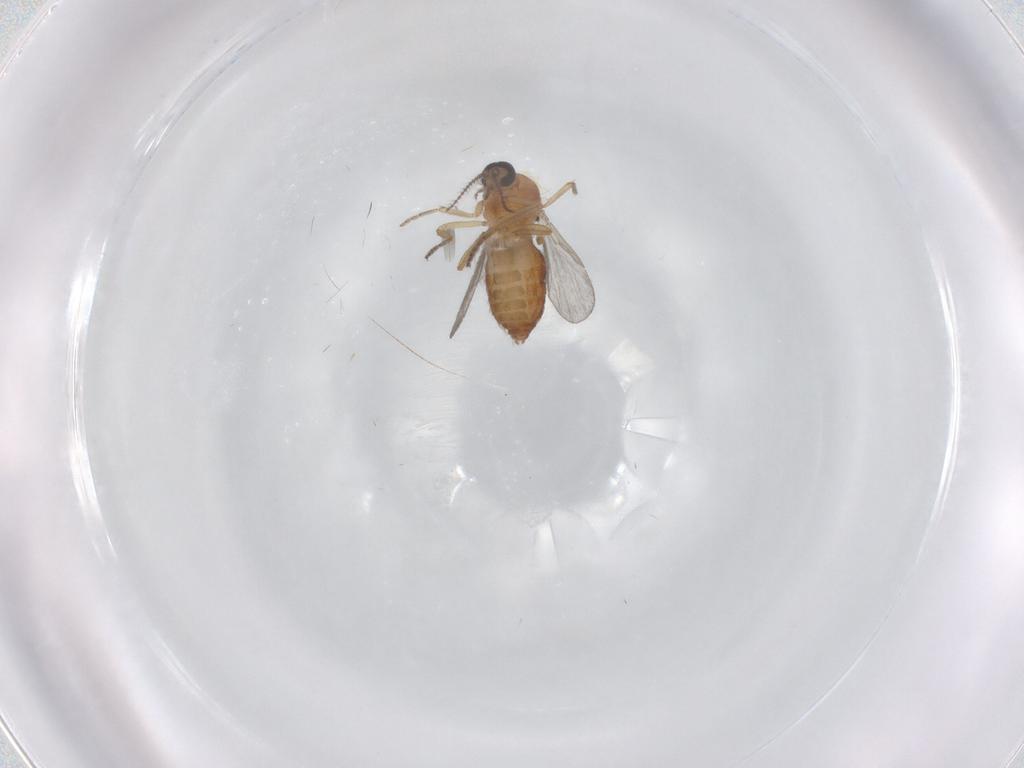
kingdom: Animalia
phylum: Arthropoda
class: Insecta
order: Diptera
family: Ceratopogonidae
